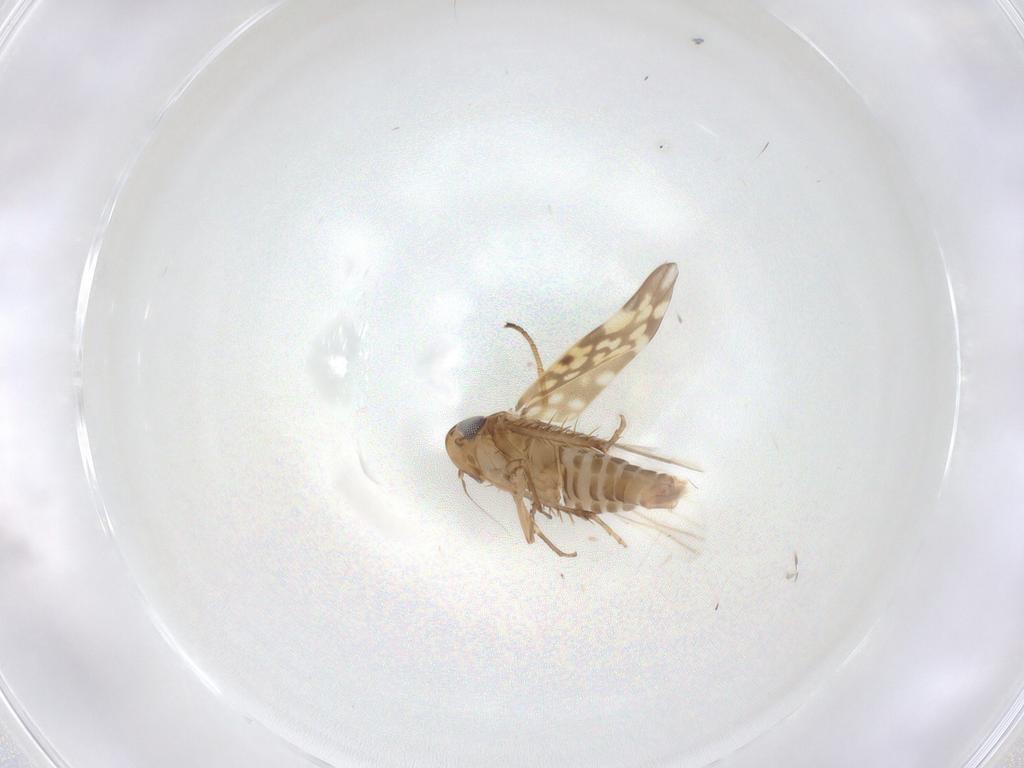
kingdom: Animalia
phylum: Arthropoda
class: Insecta
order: Hemiptera
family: Cicadellidae
